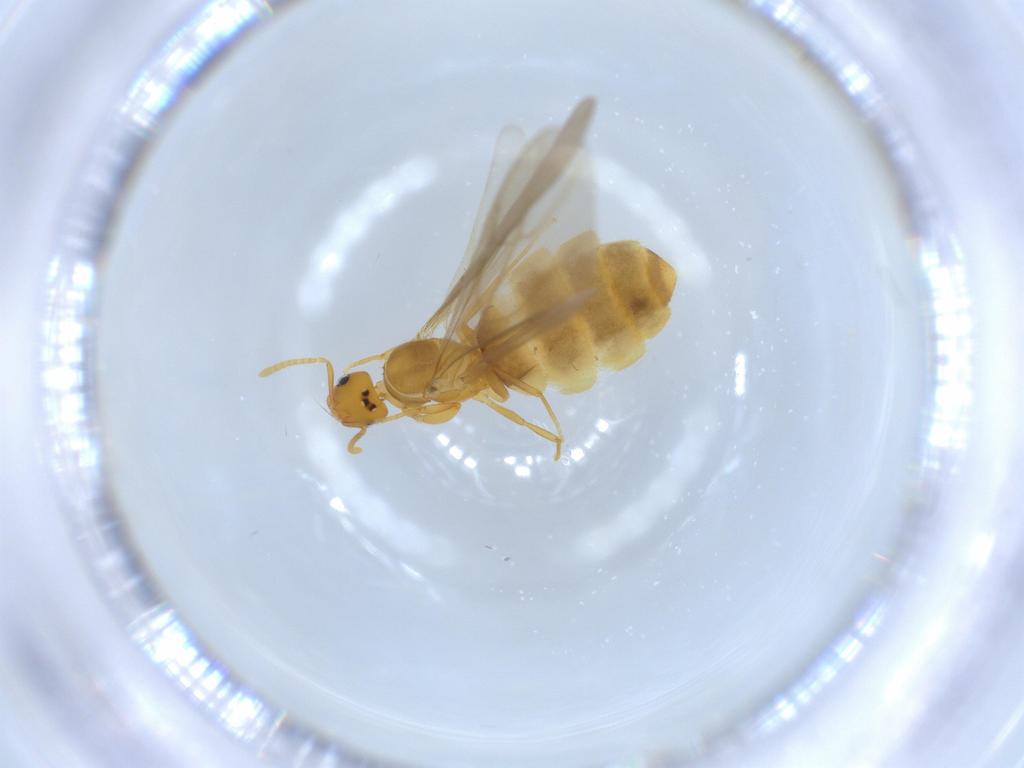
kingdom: Animalia
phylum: Arthropoda
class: Insecta
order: Hymenoptera
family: Formicidae
